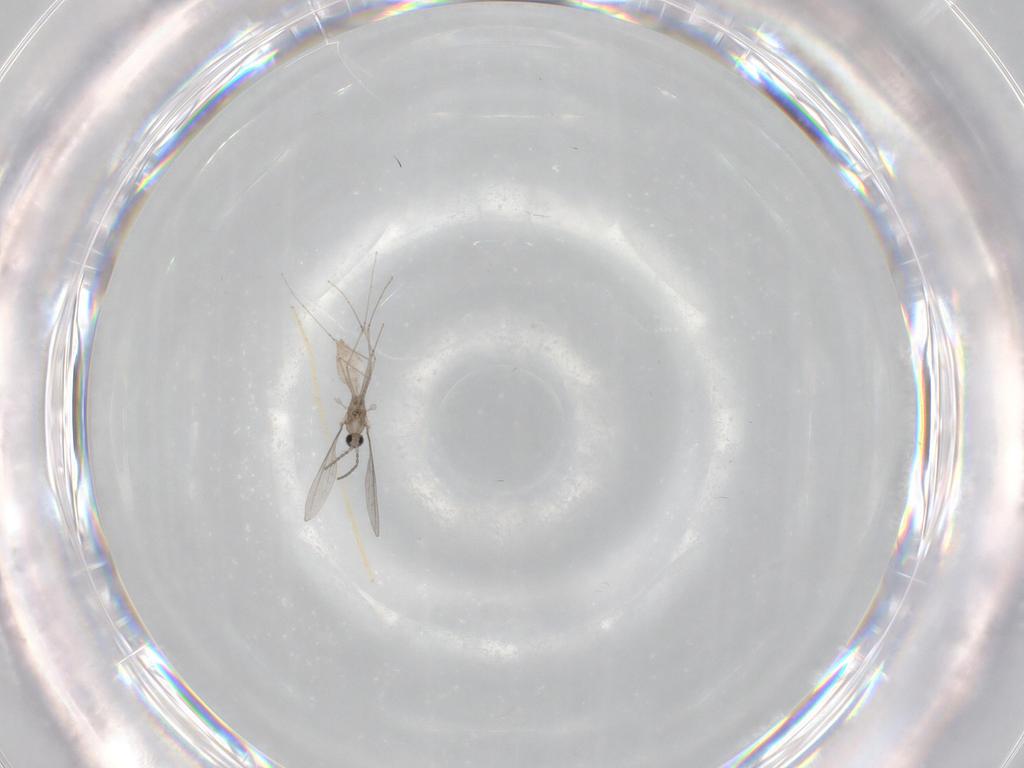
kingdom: Animalia
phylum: Arthropoda
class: Insecta
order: Diptera
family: Chironomidae
